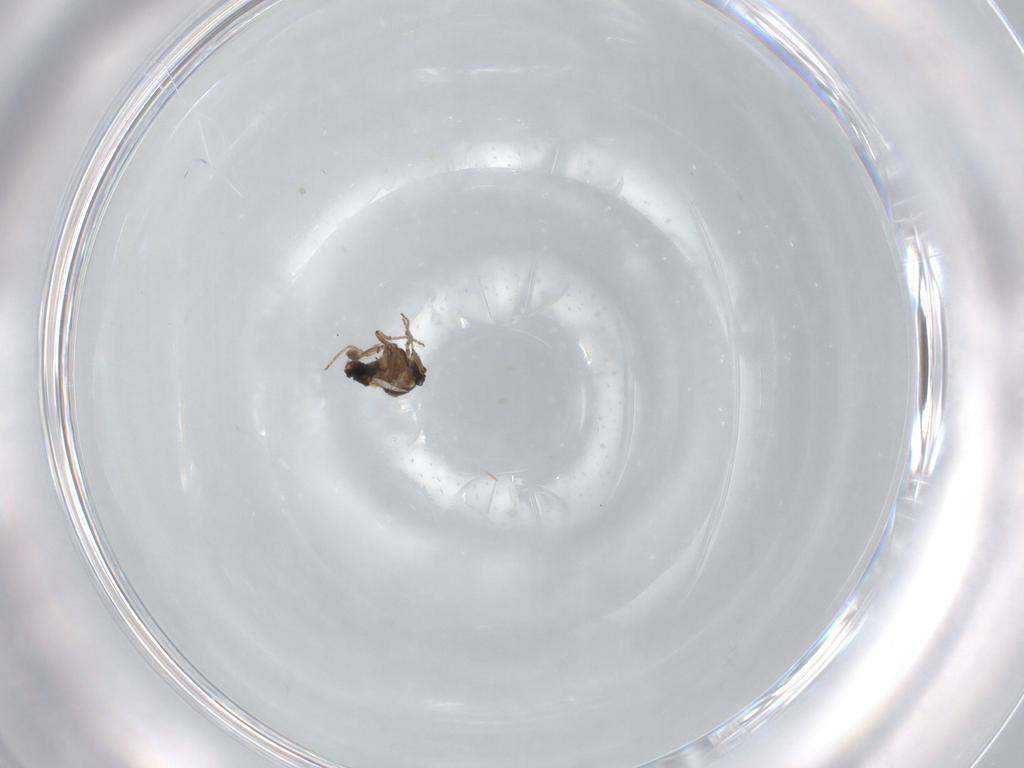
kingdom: Animalia
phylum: Arthropoda
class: Insecta
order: Diptera
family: Ceratopogonidae
